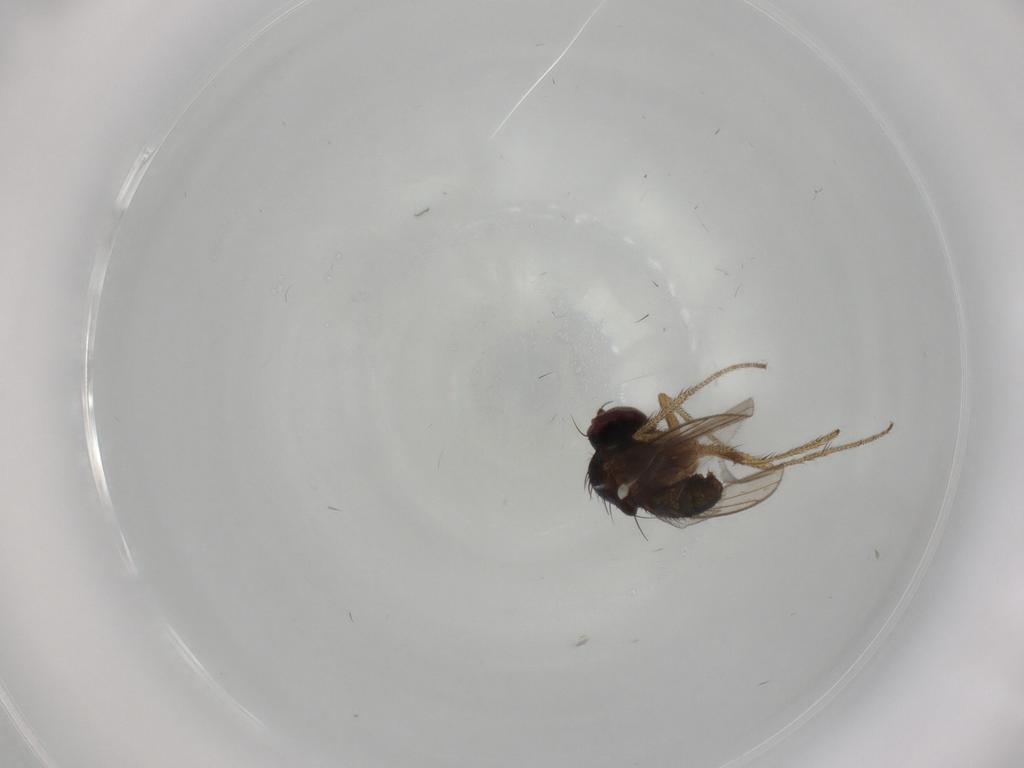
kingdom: Animalia
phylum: Arthropoda
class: Insecta
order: Diptera
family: Dolichopodidae
